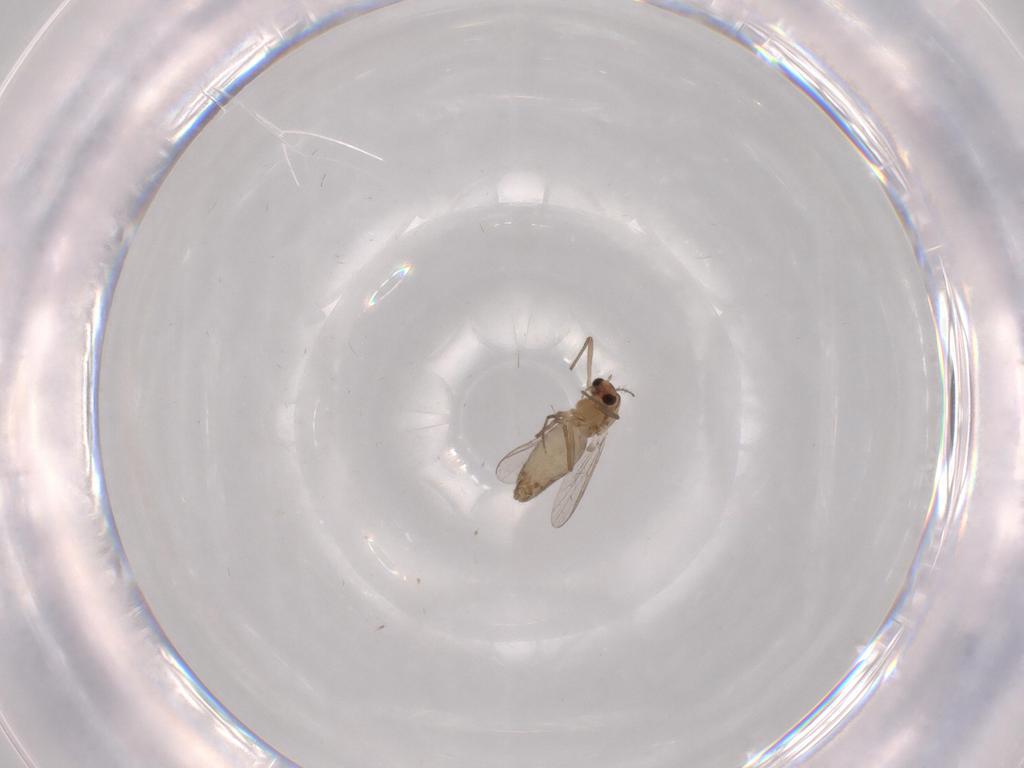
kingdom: Animalia
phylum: Arthropoda
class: Insecta
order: Diptera
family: Chironomidae
